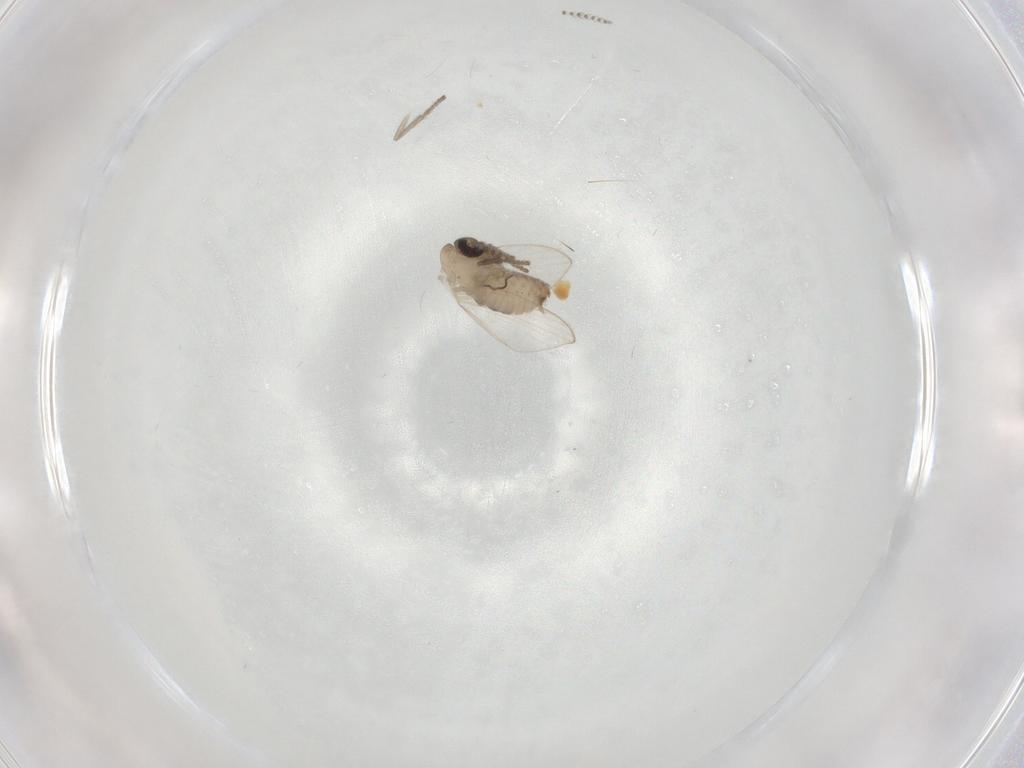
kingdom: Animalia
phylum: Arthropoda
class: Insecta
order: Diptera
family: Psychodidae
